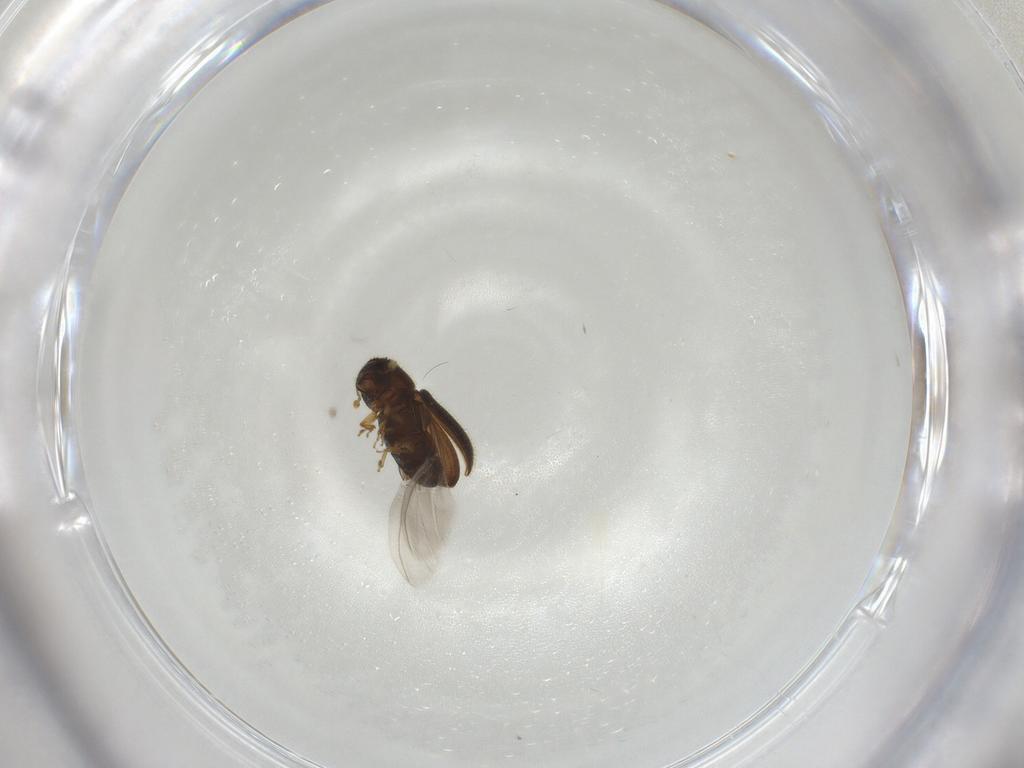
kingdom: Animalia
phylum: Arthropoda
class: Insecta
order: Coleoptera
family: Curculionidae
